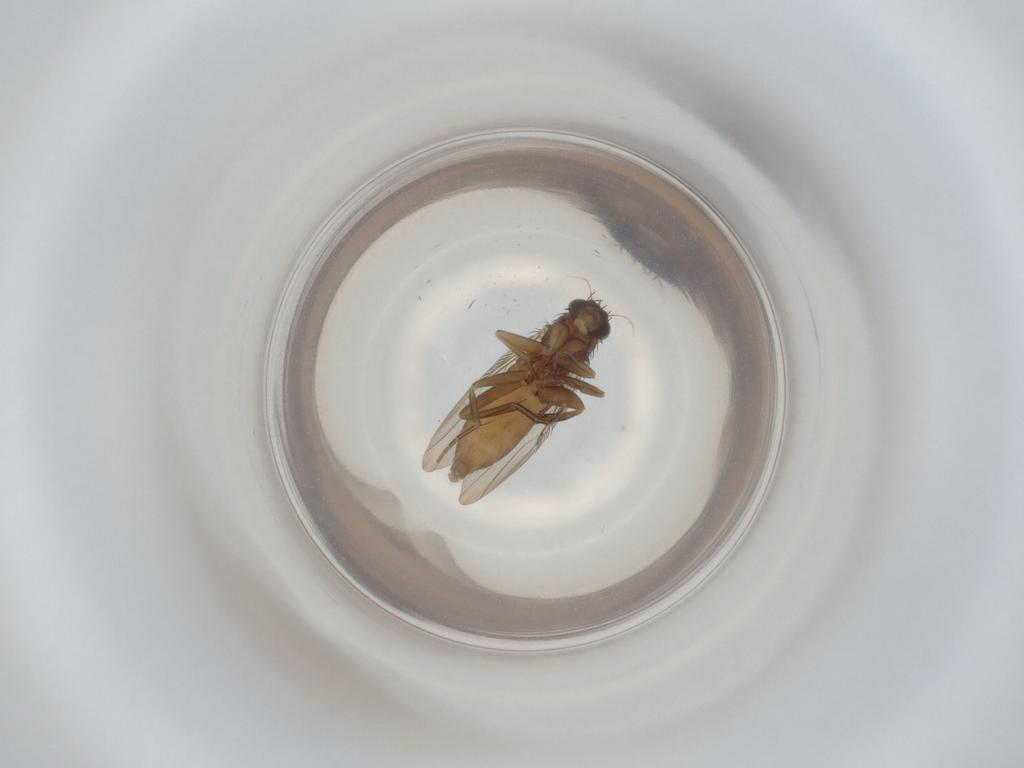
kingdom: Animalia
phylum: Arthropoda
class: Insecta
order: Diptera
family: Phoridae
